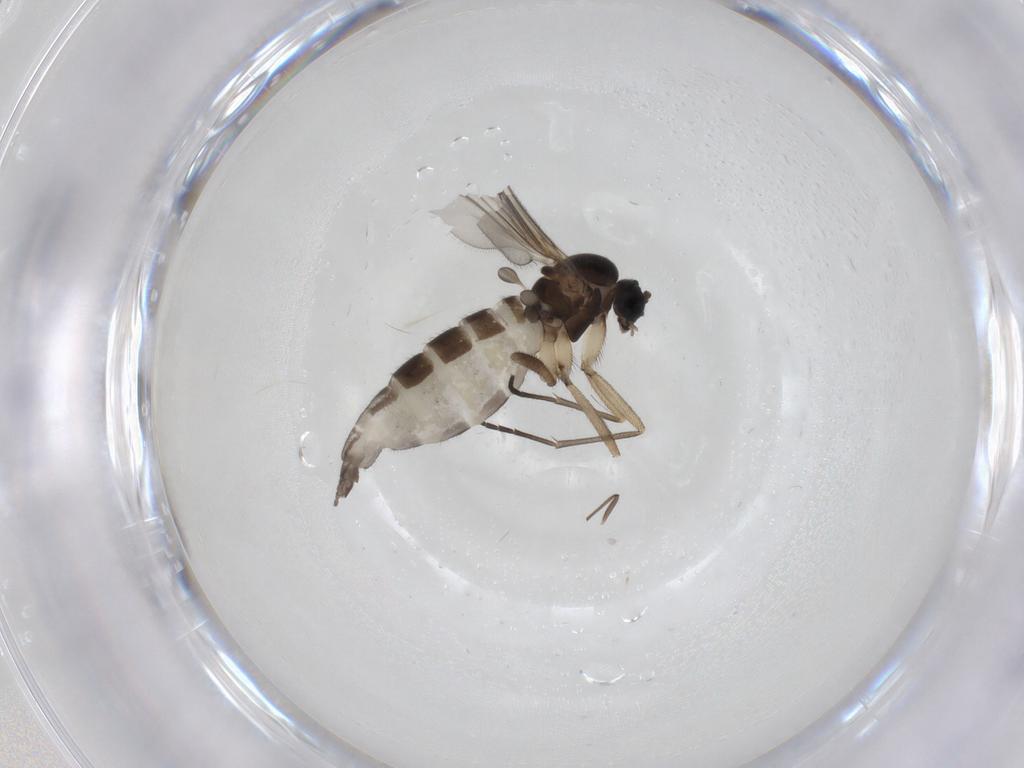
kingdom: Animalia
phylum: Arthropoda
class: Insecta
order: Diptera
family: Sciaridae
